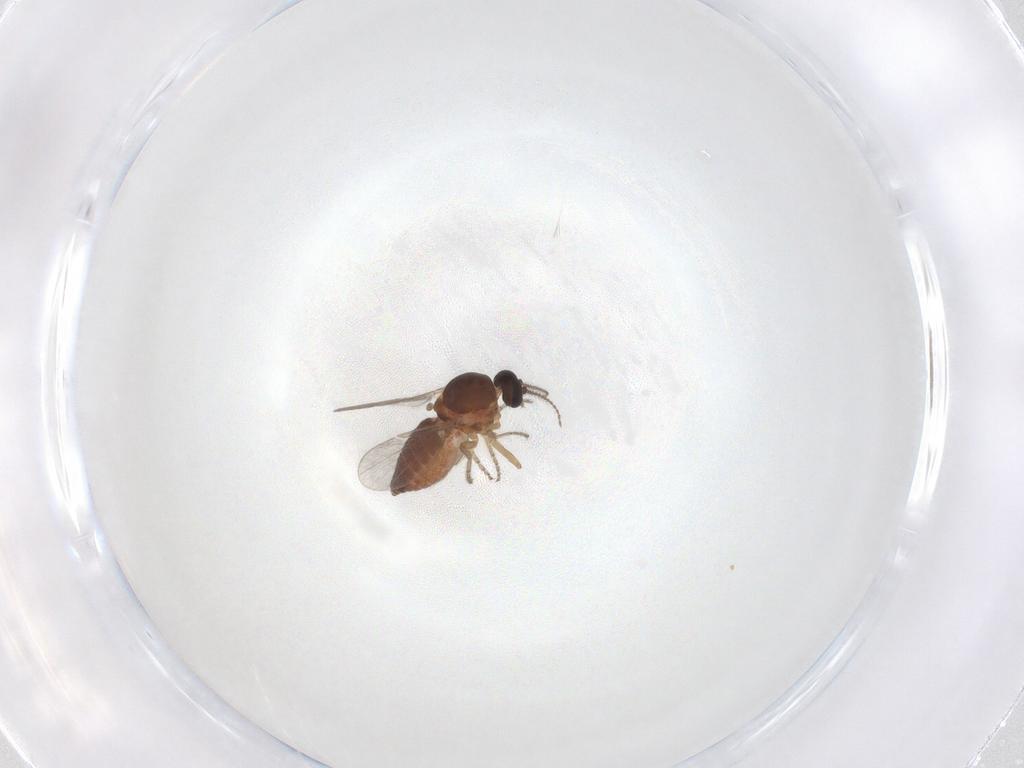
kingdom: Animalia
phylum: Arthropoda
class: Insecta
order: Diptera
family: Ceratopogonidae
